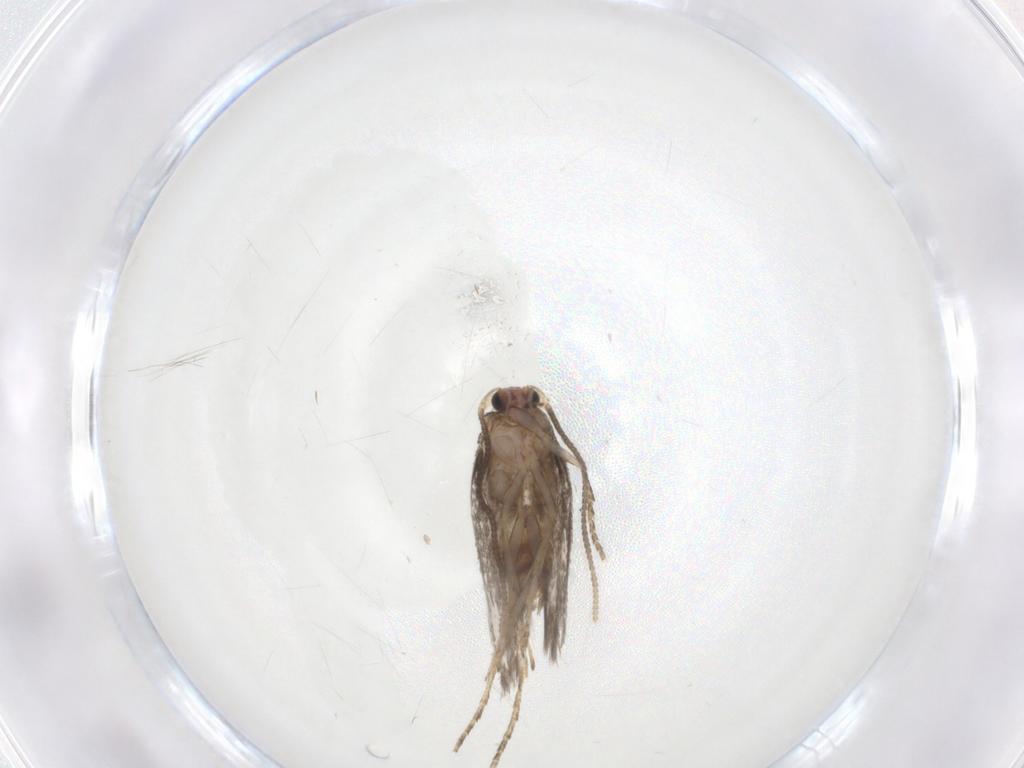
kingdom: Animalia
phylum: Arthropoda
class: Insecta
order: Lepidoptera
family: Nepticulidae
